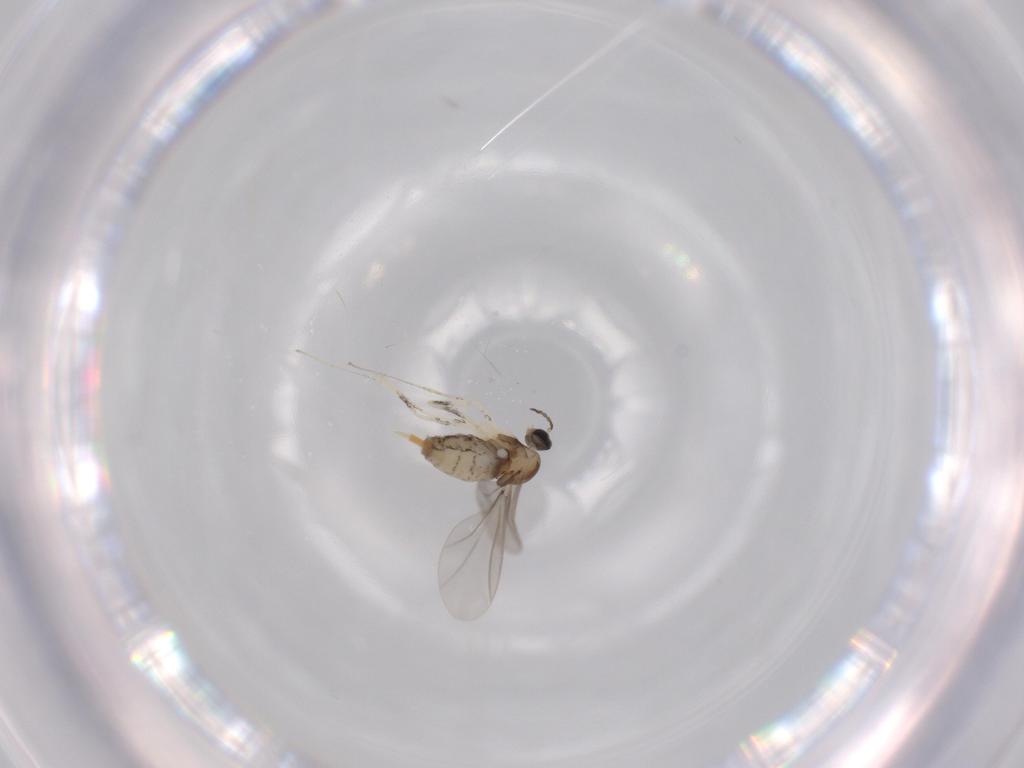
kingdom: Animalia
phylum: Arthropoda
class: Insecta
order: Diptera
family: Cecidomyiidae
